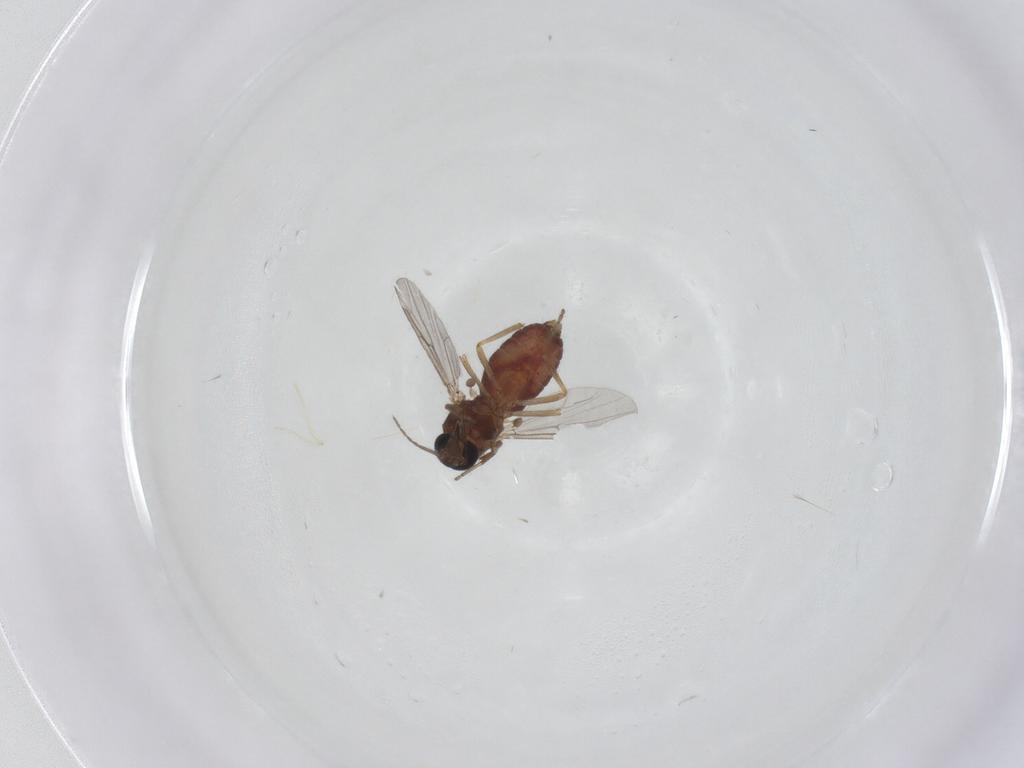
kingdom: Animalia
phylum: Arthropoda
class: Insecta
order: Diptera
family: Ceratopogonidae
